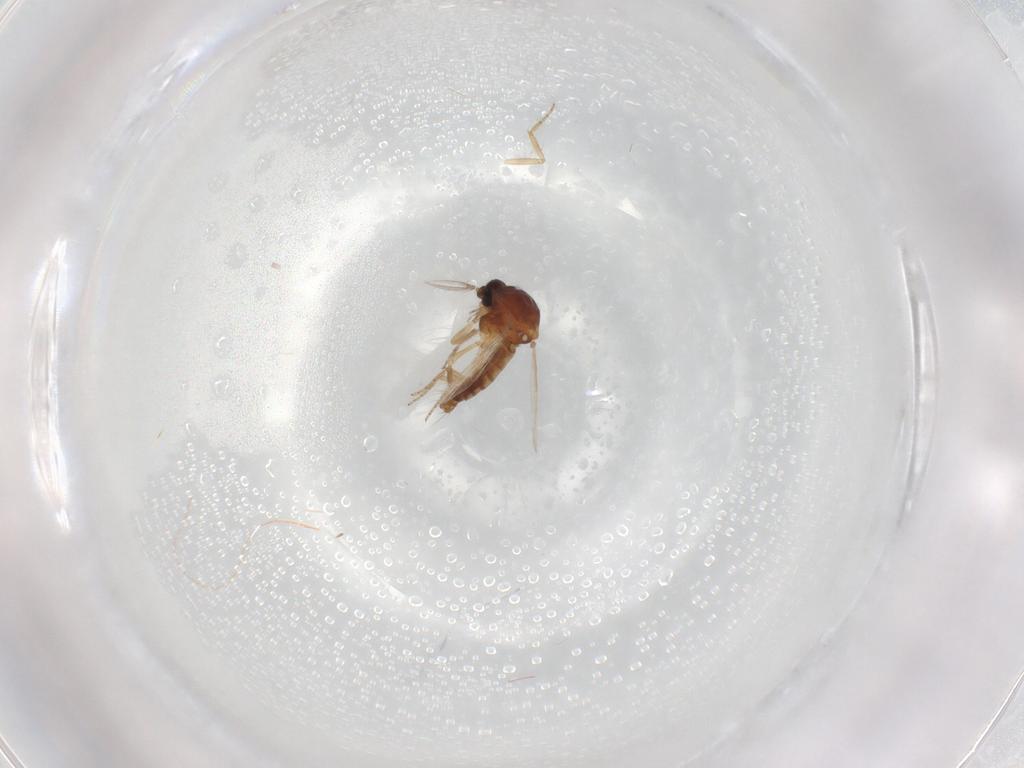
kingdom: Animalia
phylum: Arthropoda
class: Insecta
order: Diptera
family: Ceratopogonidae
